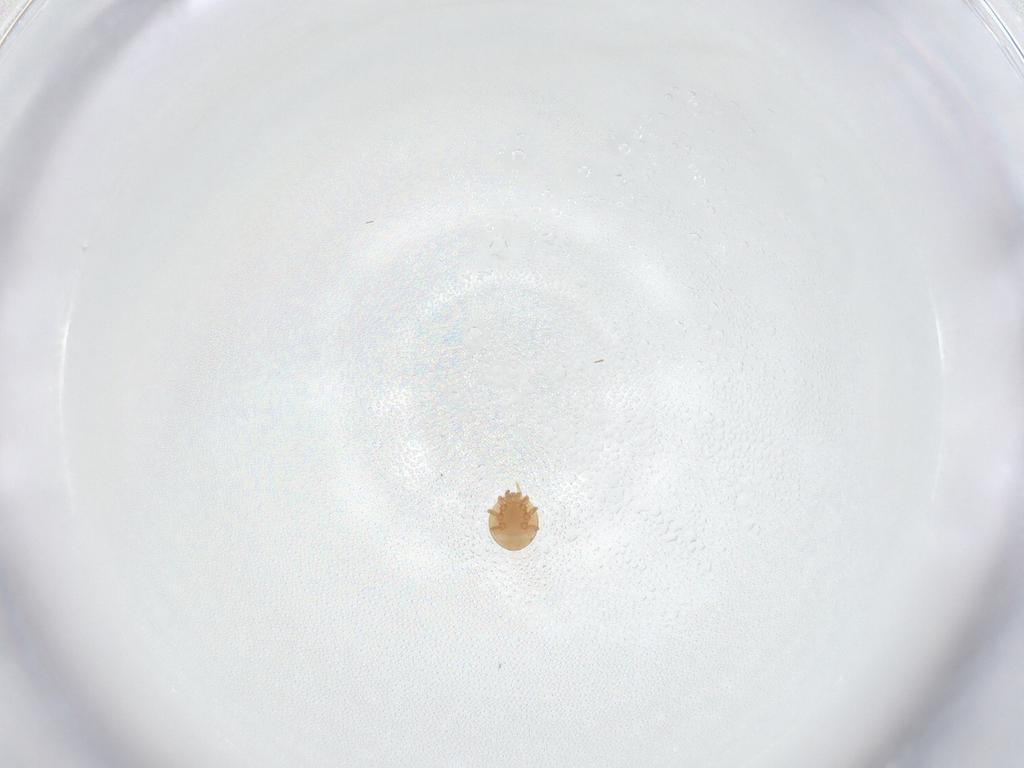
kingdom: Animalia
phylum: Arthropoda
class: Arachnida
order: Mesostigmata
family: Trematuridae
